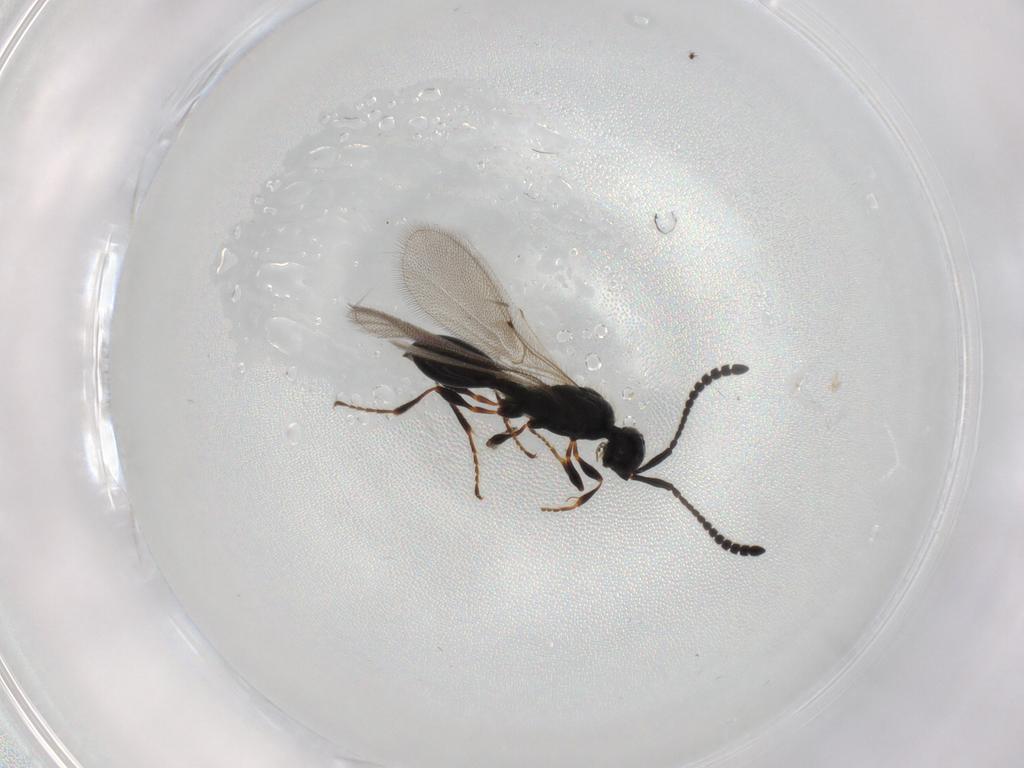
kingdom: Animalia
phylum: Arthropoda
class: Insecta
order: Hymenoptera
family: Diapriidae
